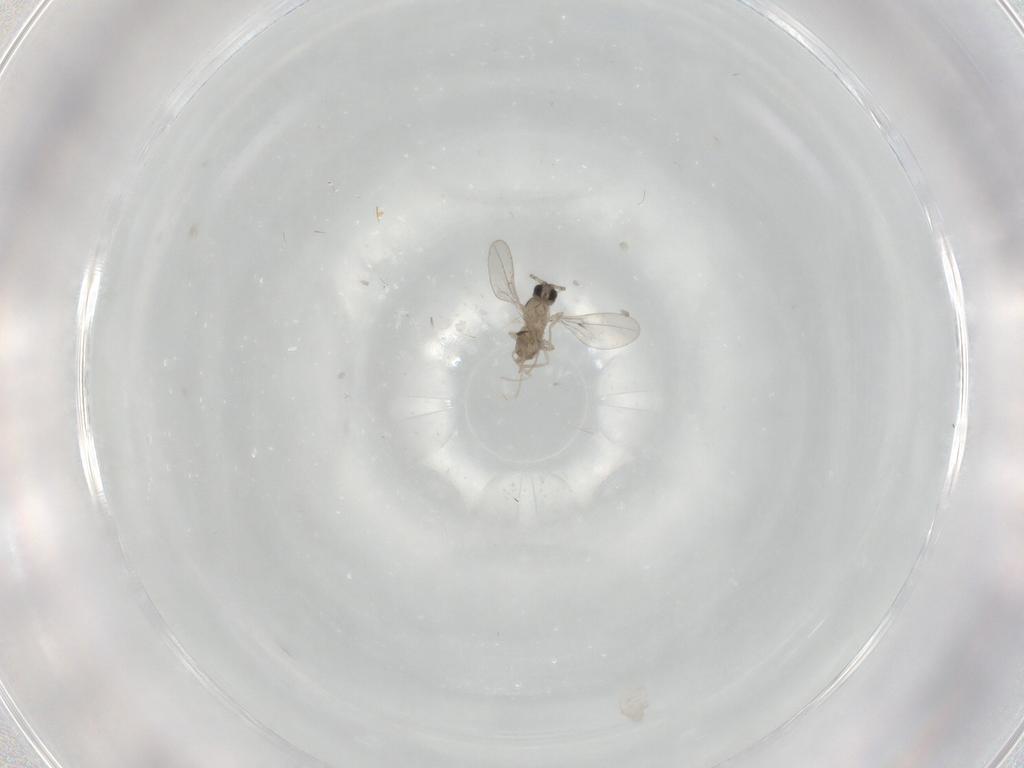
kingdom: Animalia
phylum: Arthropoda
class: Insecta
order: Diptera
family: Cecidomyiidae
